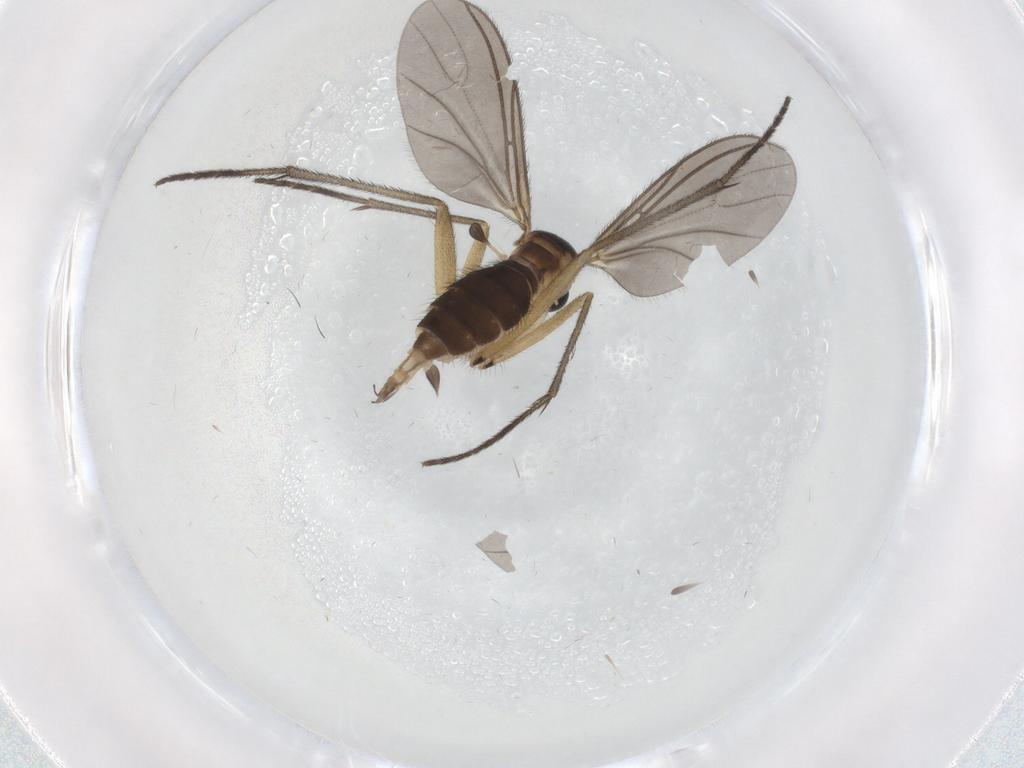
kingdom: Animalia
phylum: Arthropoda
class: Insecta
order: Diptera
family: Sciaridae
